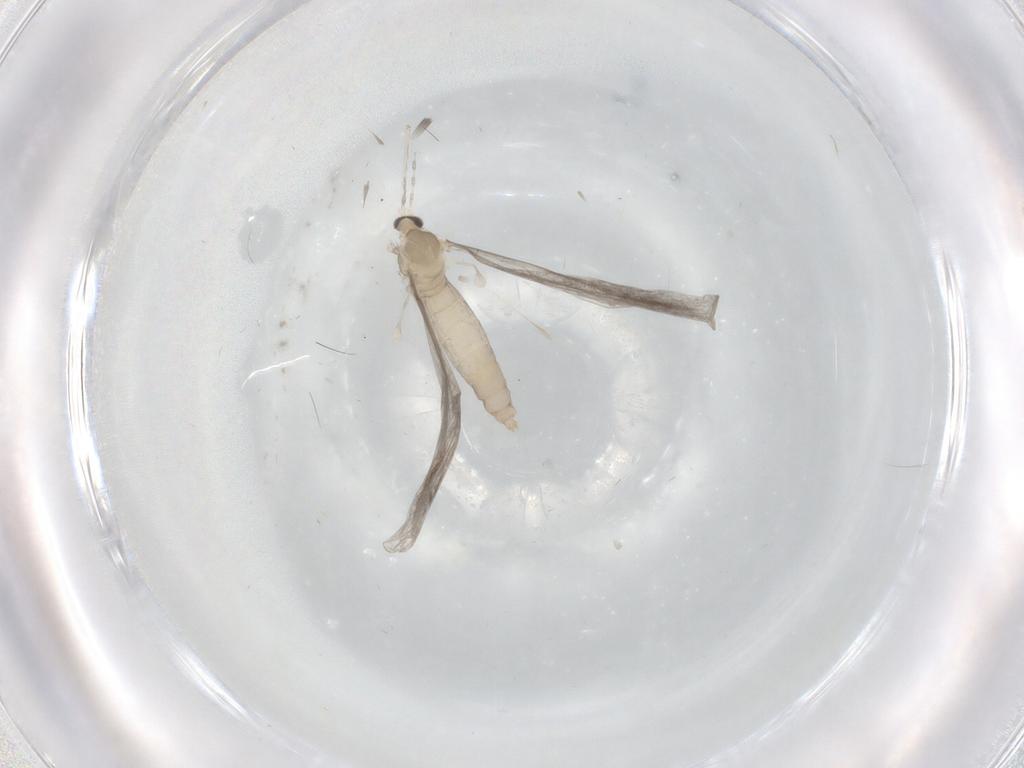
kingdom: Animalia
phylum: Arthropoda
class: Insecta
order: Diptera
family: Cecidomyiidae
